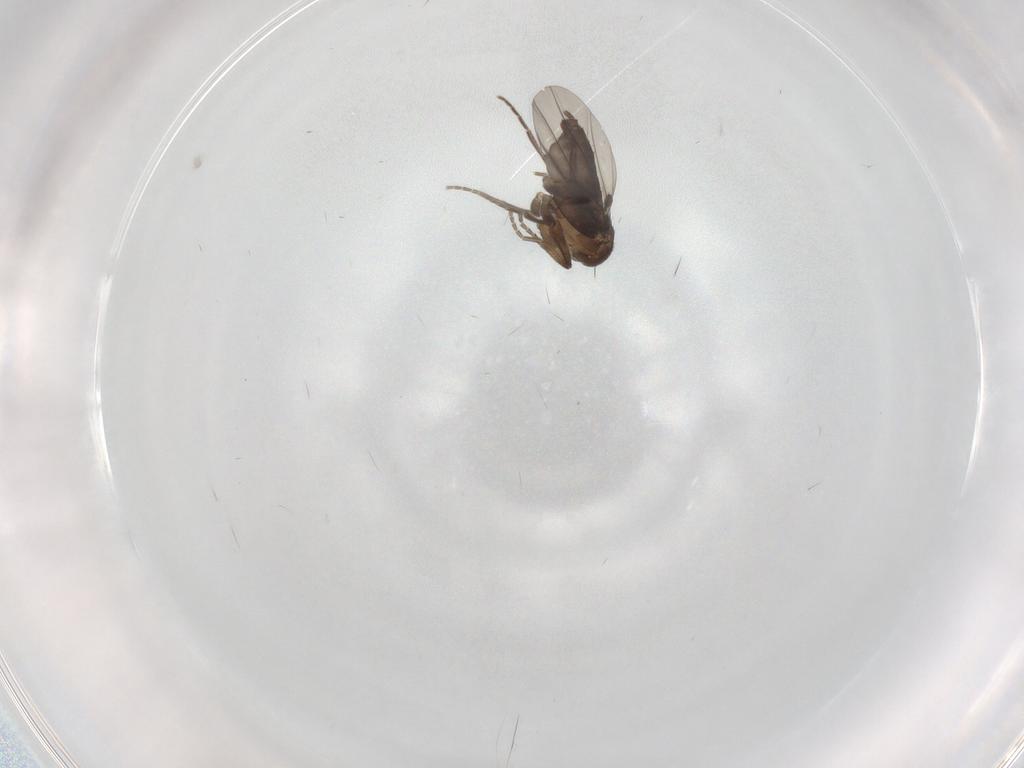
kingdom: Animalia
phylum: Arthropoda
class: Insecta
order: Diptera
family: Phoridae
